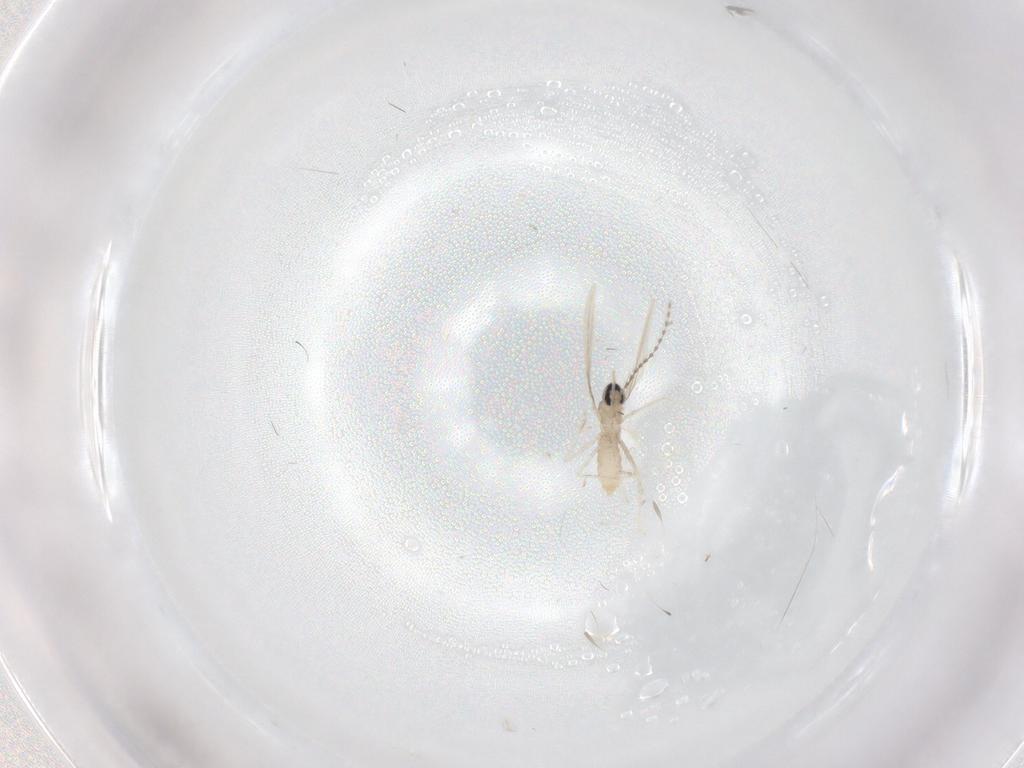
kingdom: Animalia
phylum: Arthropoda
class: Insecta
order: Diptera
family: Cecidomyiidae
